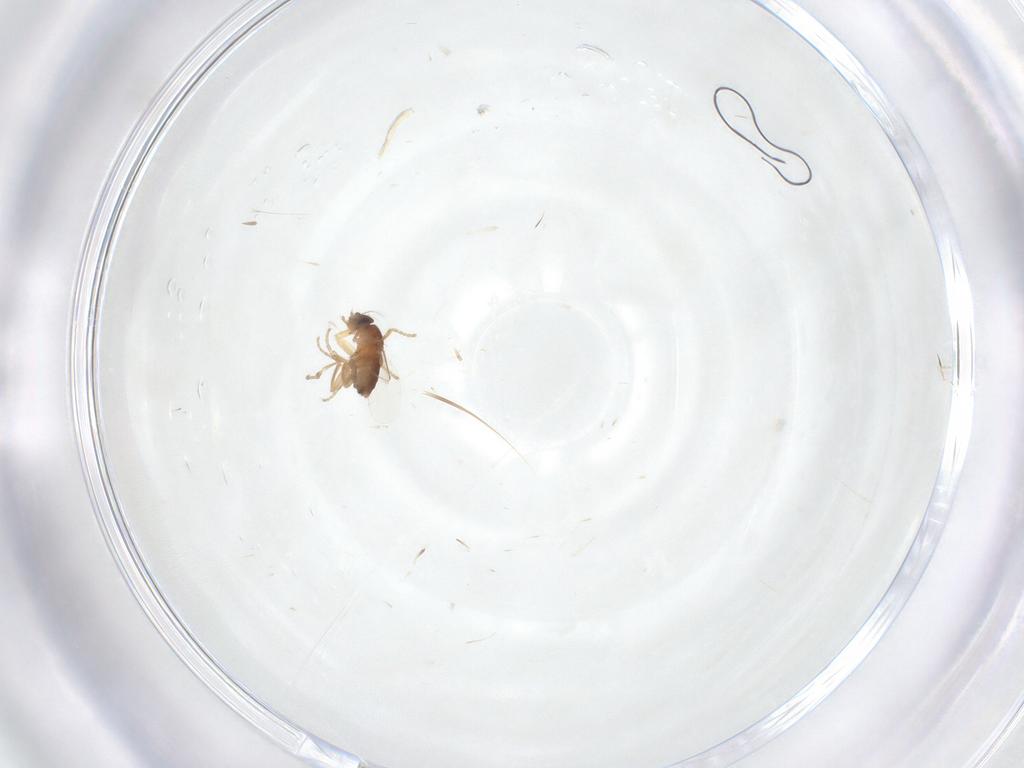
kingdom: Animalia
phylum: Arthropoda
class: Insecta
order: Diptera
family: Phoridae
